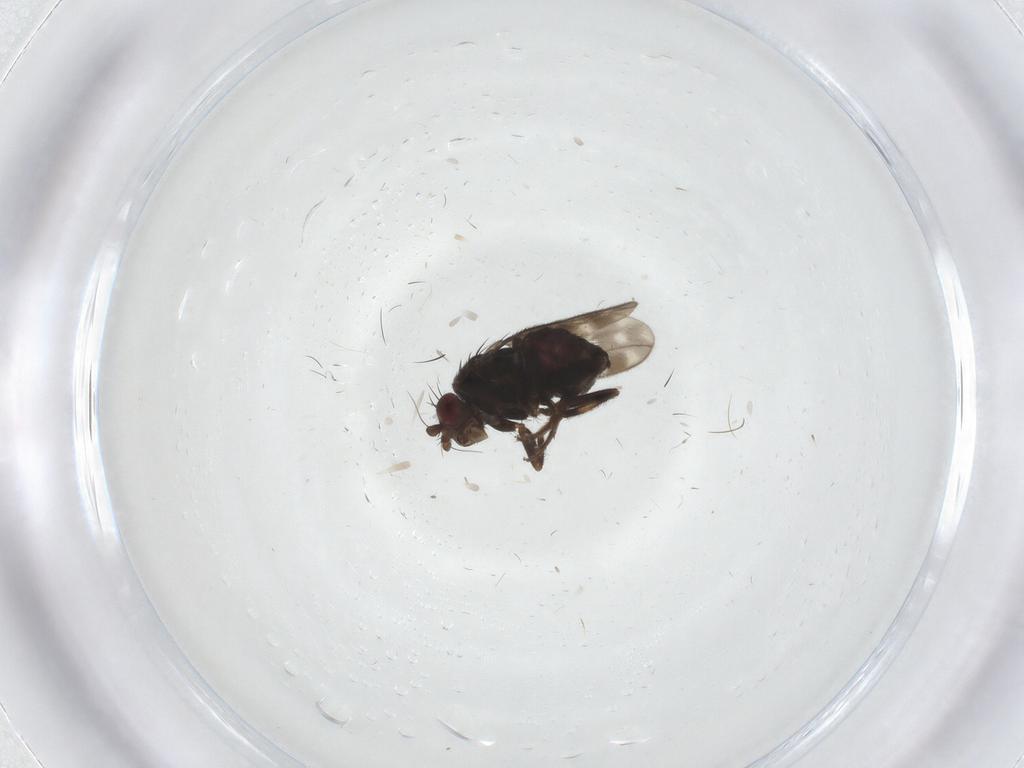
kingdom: Animalia
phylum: Arthropoda
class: Insecta
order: Diptera
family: Sphaeroceridae
